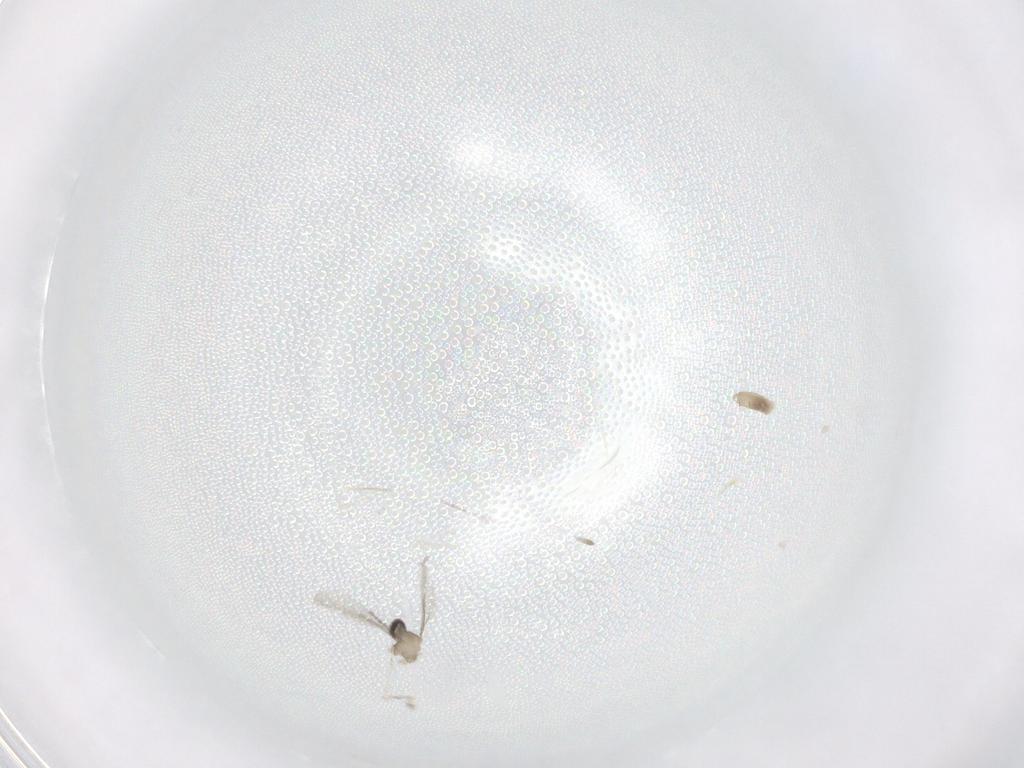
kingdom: Animalia
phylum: Arthropoda
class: Insecta
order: Diptera
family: Cecidomyiidae
